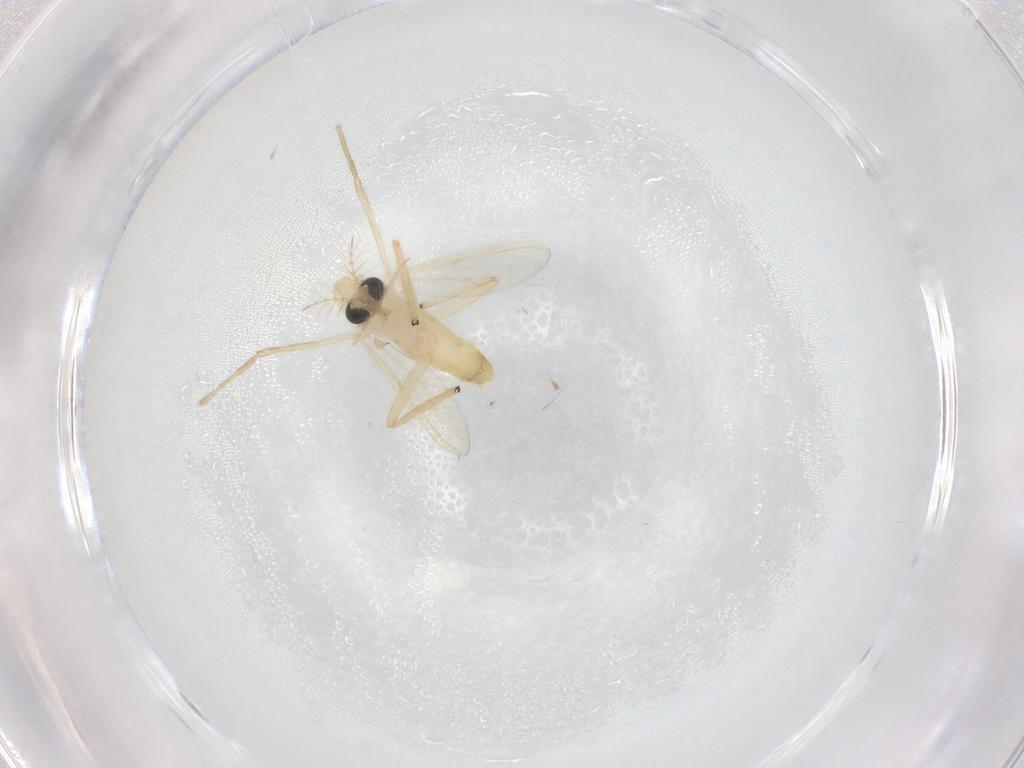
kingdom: Animalia
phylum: Arthropoda
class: Insecta
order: Diptera
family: Chironomidae
